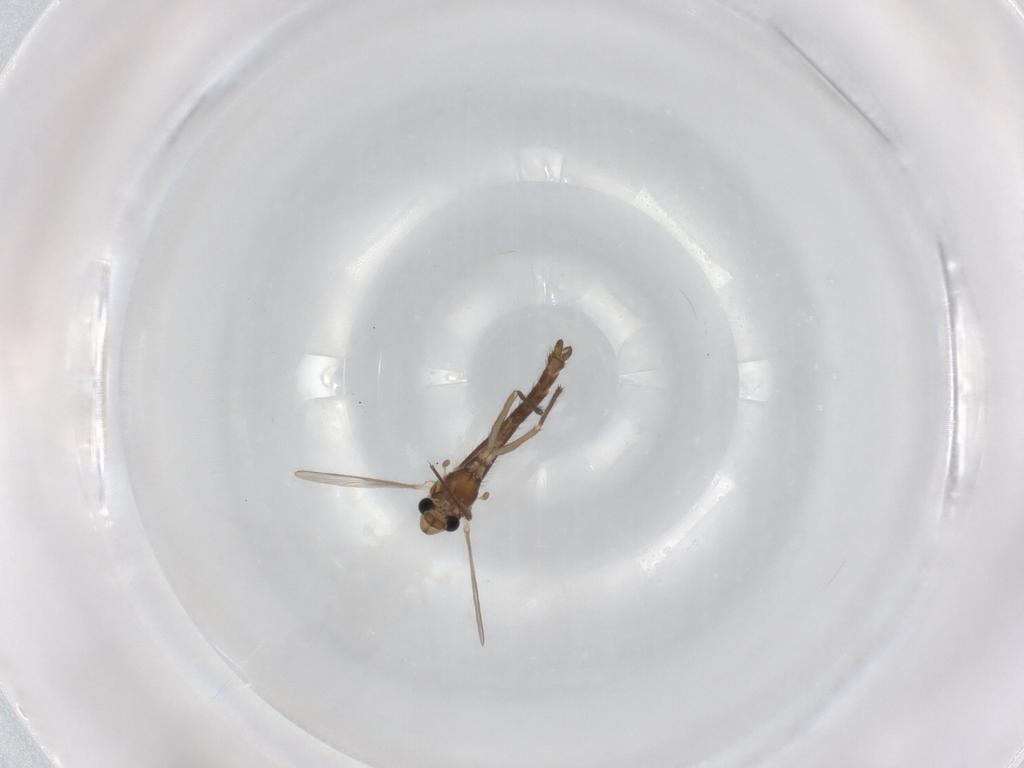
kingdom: Animalia
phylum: Arthropoda
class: Insecta
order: Diptera
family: Chironomidae
